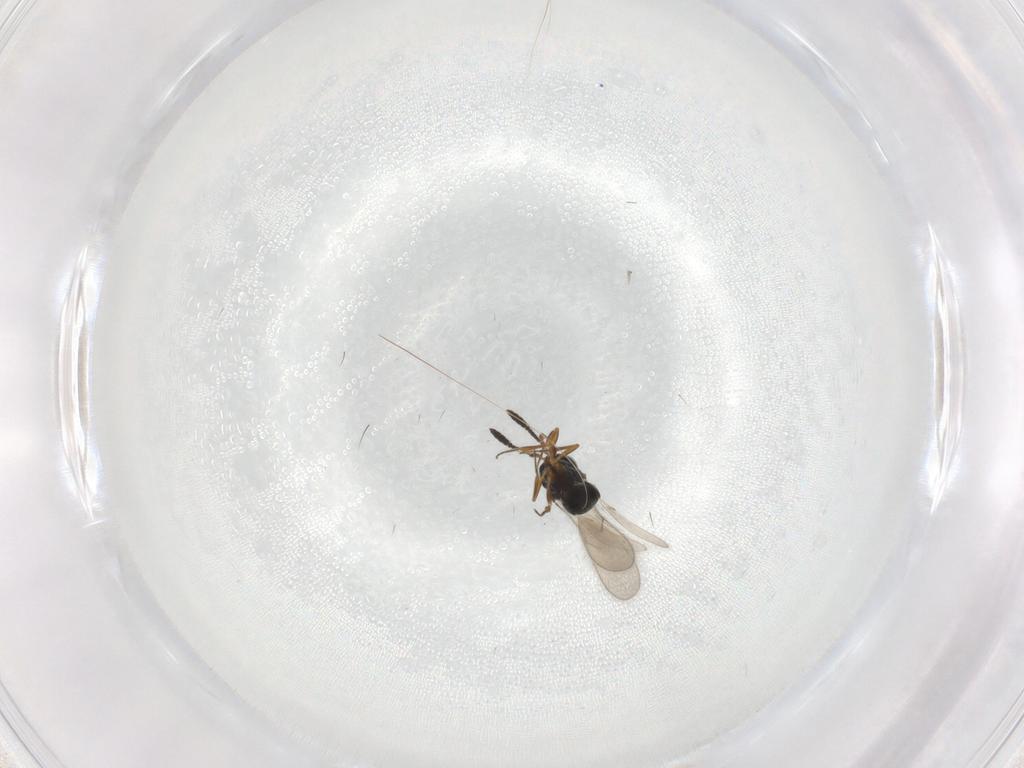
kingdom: Animalia
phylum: Arthropoda
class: Insecta
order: Hymenoptera
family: Scelionidae
